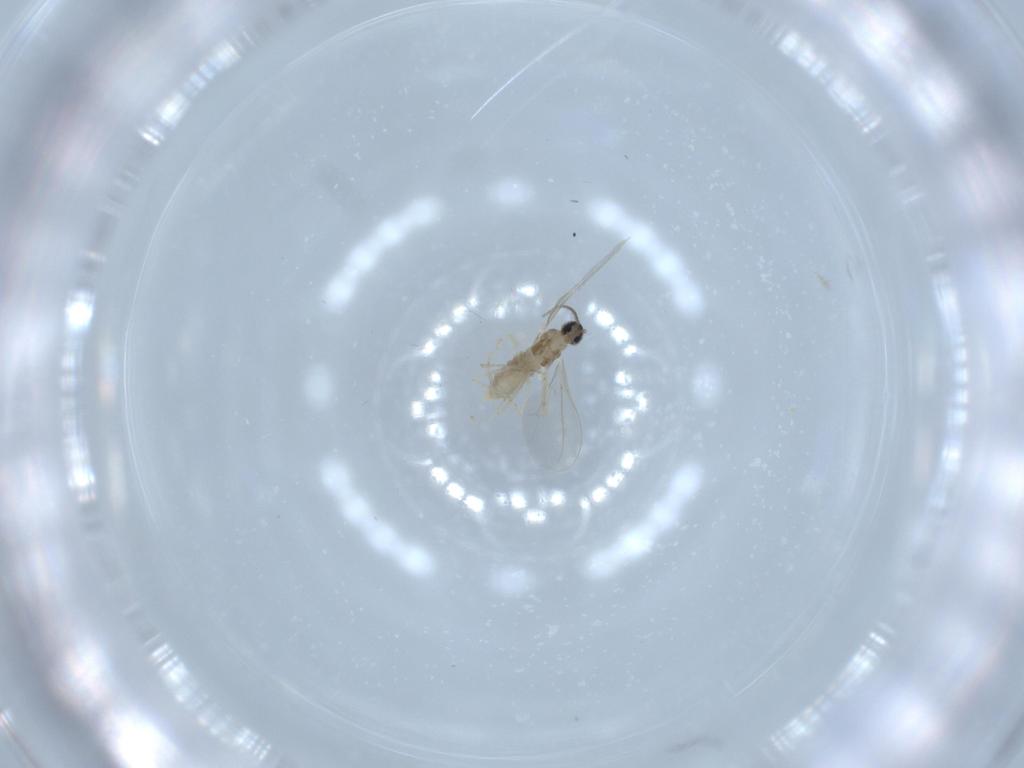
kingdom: Animalia
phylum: Arthropoda
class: Insecta
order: Diptera
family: Cecidomyiidae
